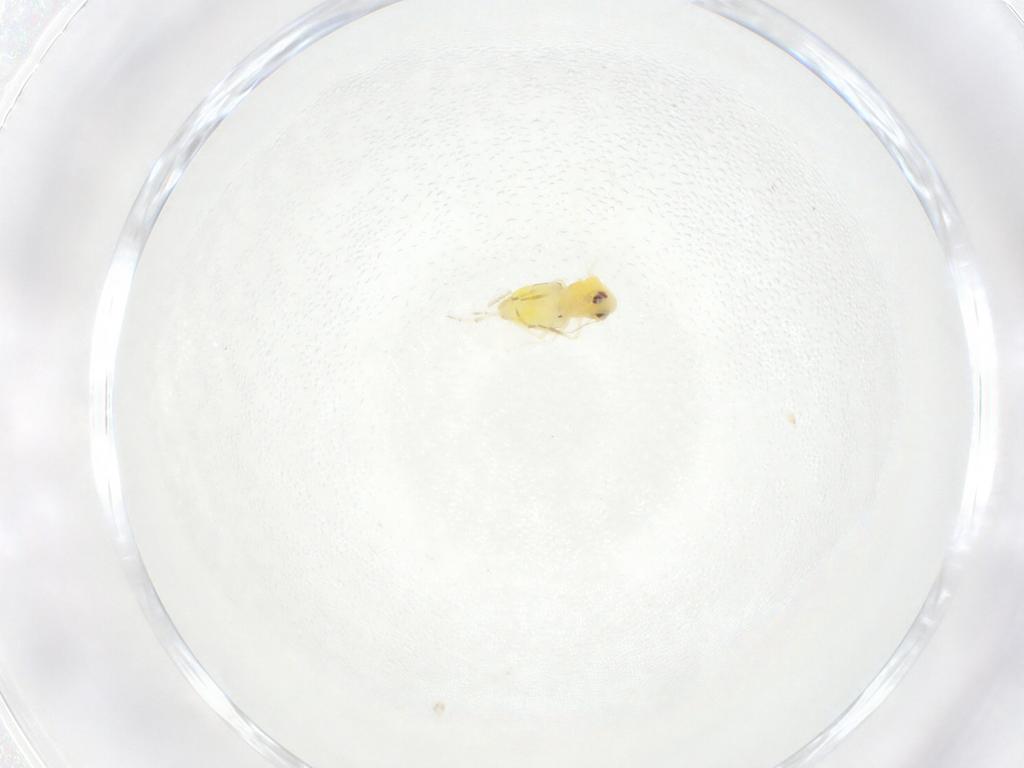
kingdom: Animalia
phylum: Arthropoda
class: Insecta
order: Hemiptera
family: Aleyrodidae
